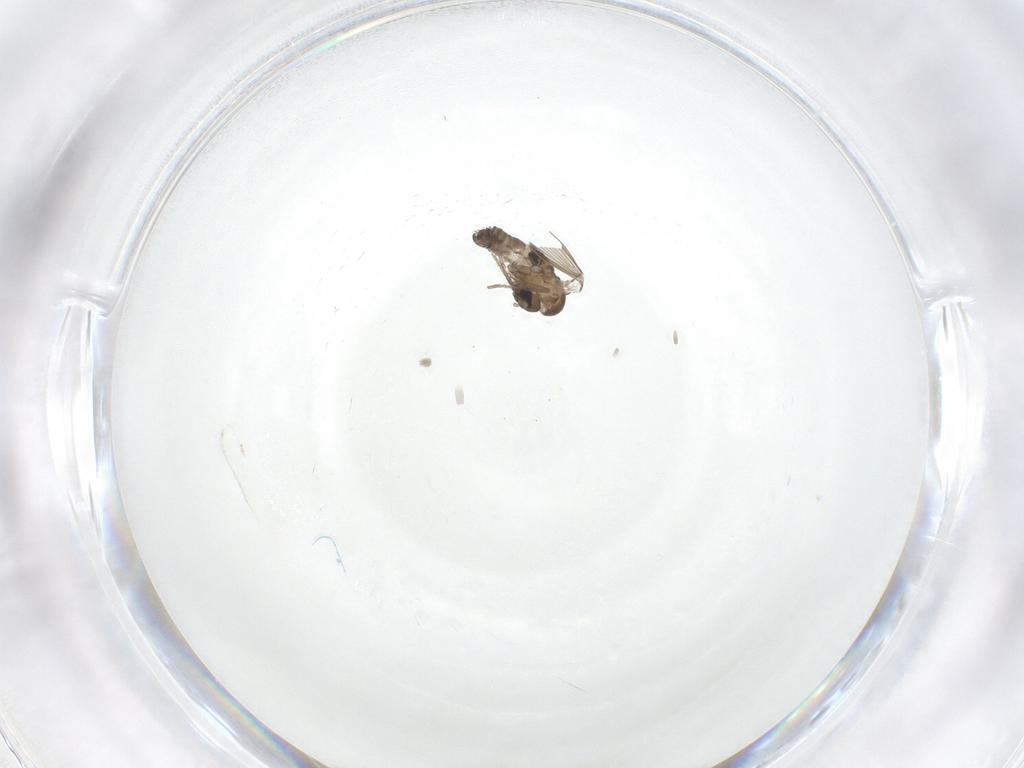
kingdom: Animalia
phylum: Arthropoda
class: Insecta
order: Diptera
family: Psychodidae
